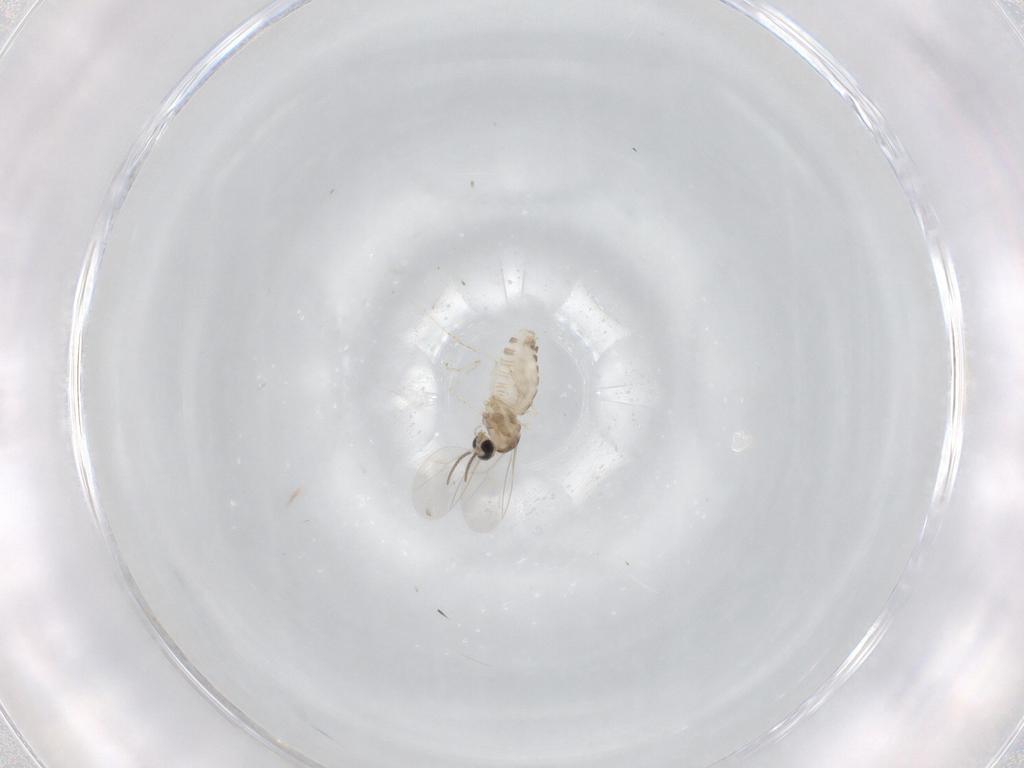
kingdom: Animalia
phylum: Arthropoda
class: Insecta
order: Diptera
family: Cecidomyiidae
